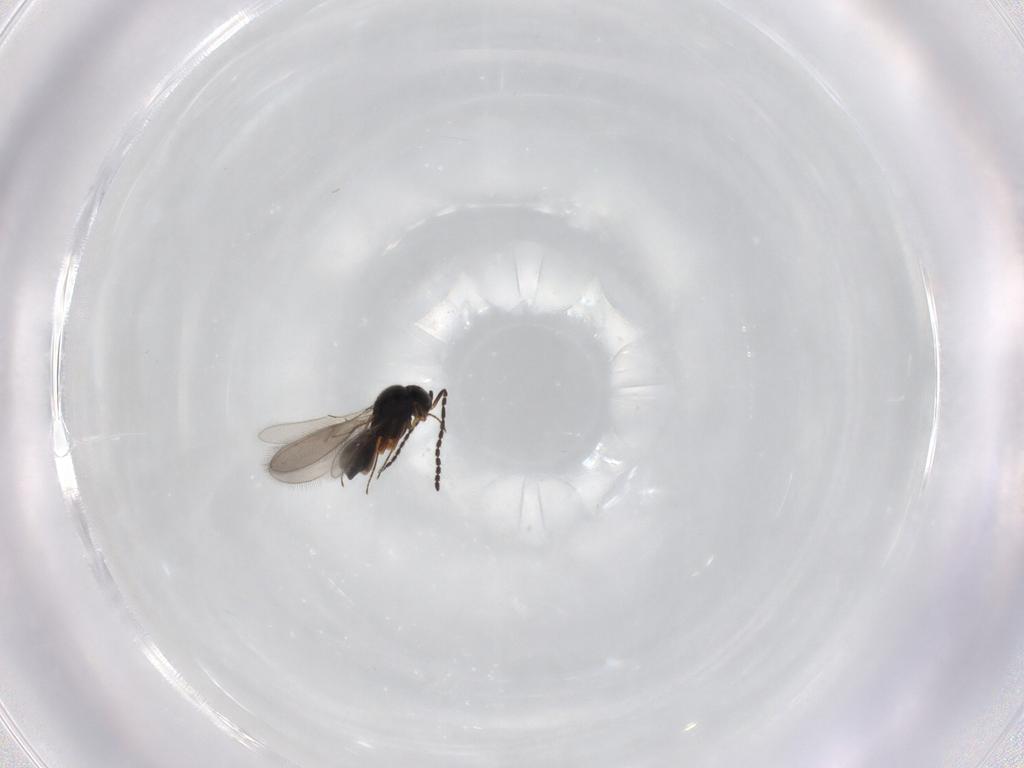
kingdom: Animalia
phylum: Arthropoda
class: Insecta
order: Hymenoptera
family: Scelionidae
